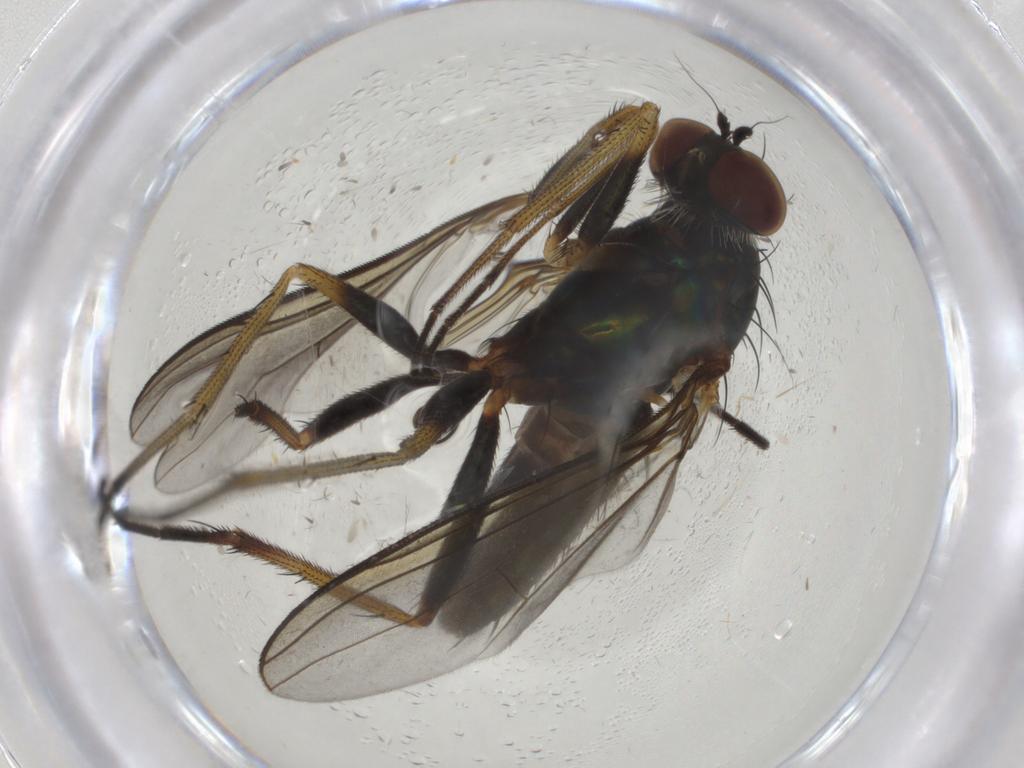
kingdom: Animalia
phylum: Arthropoda
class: Insecta
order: Diptera
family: Dolichopodidae
